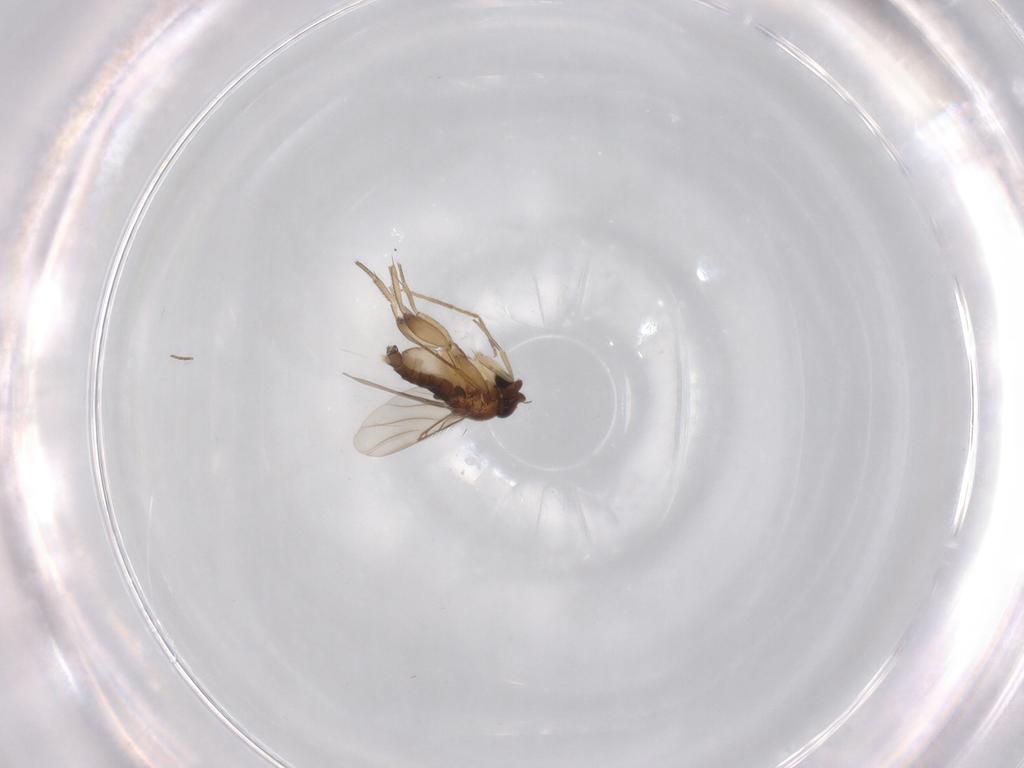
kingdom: Animalia
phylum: Arthropoda
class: Insecta
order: Diptera
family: Phoridae
